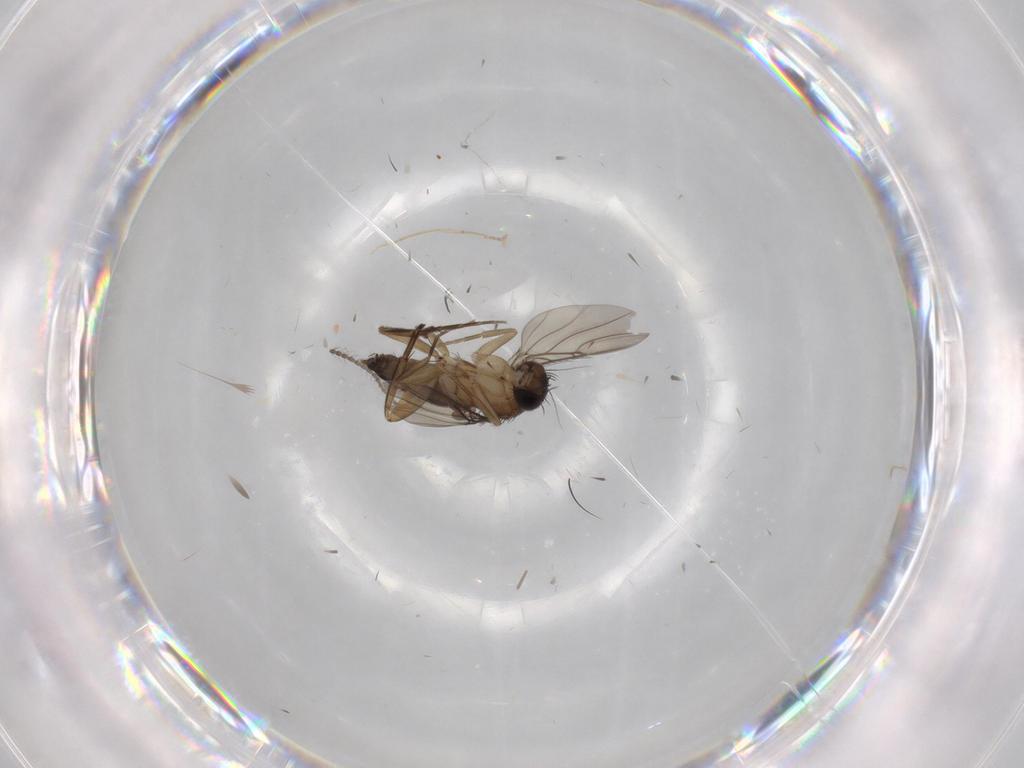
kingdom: Animalia
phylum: Arthropoda
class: Insecta
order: Diptera
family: Phoridae
